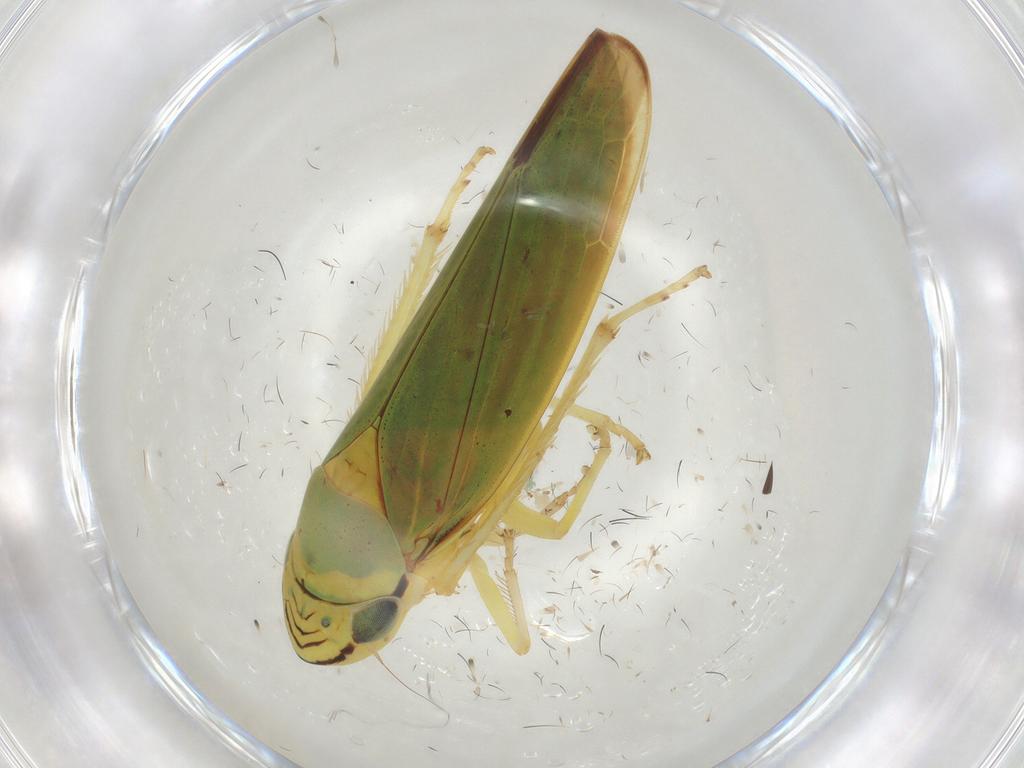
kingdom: Animalia
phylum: Arthropoda
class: Insecta
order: Hemiptera
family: Cicadellidae
